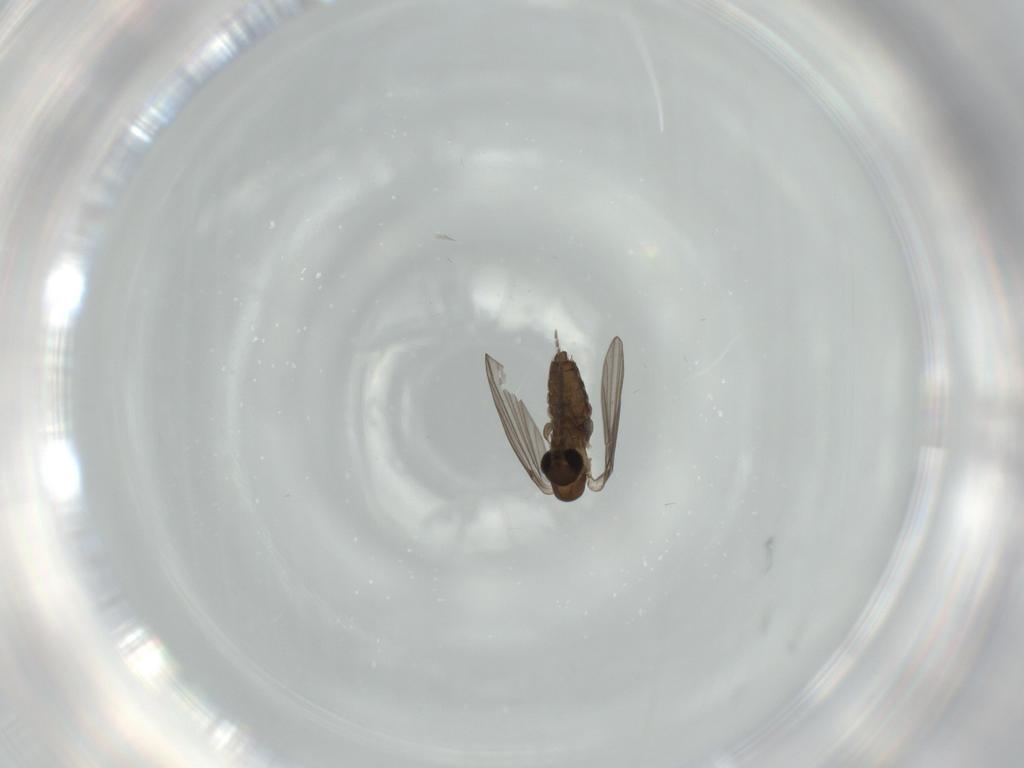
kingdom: Animalia
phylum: Arthropoda
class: Insecta
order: Diptera
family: Psychodidae
